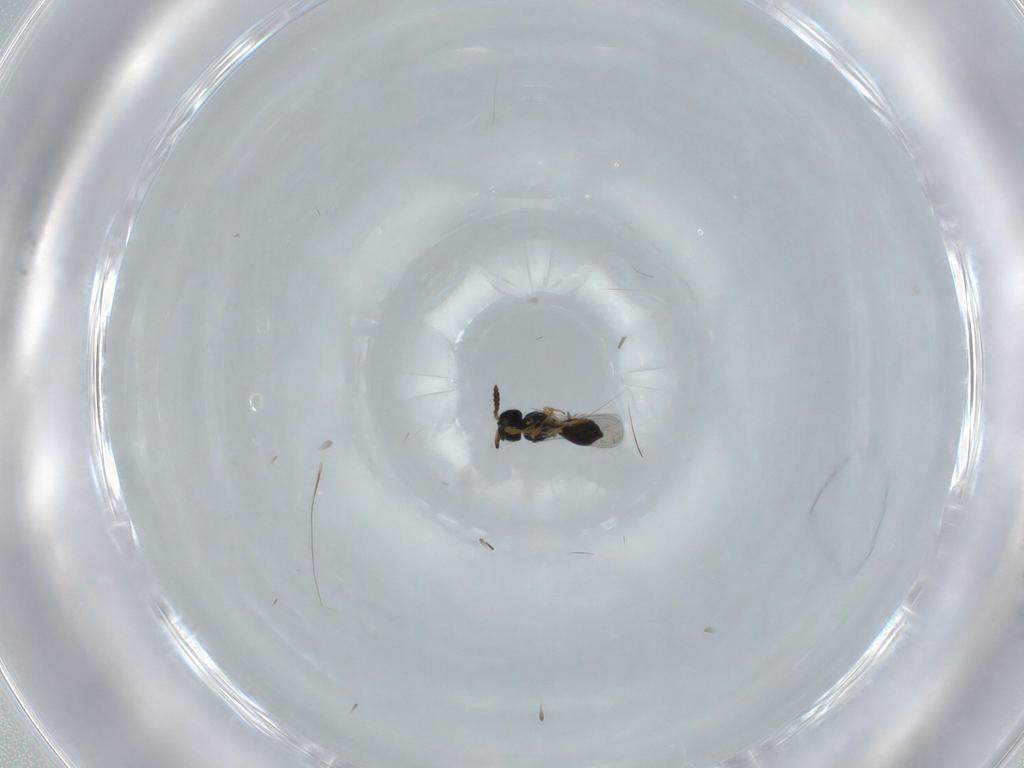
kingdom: Animalia
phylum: Arthropoda
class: Insecta
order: Hymenoptera
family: Scelionidae
